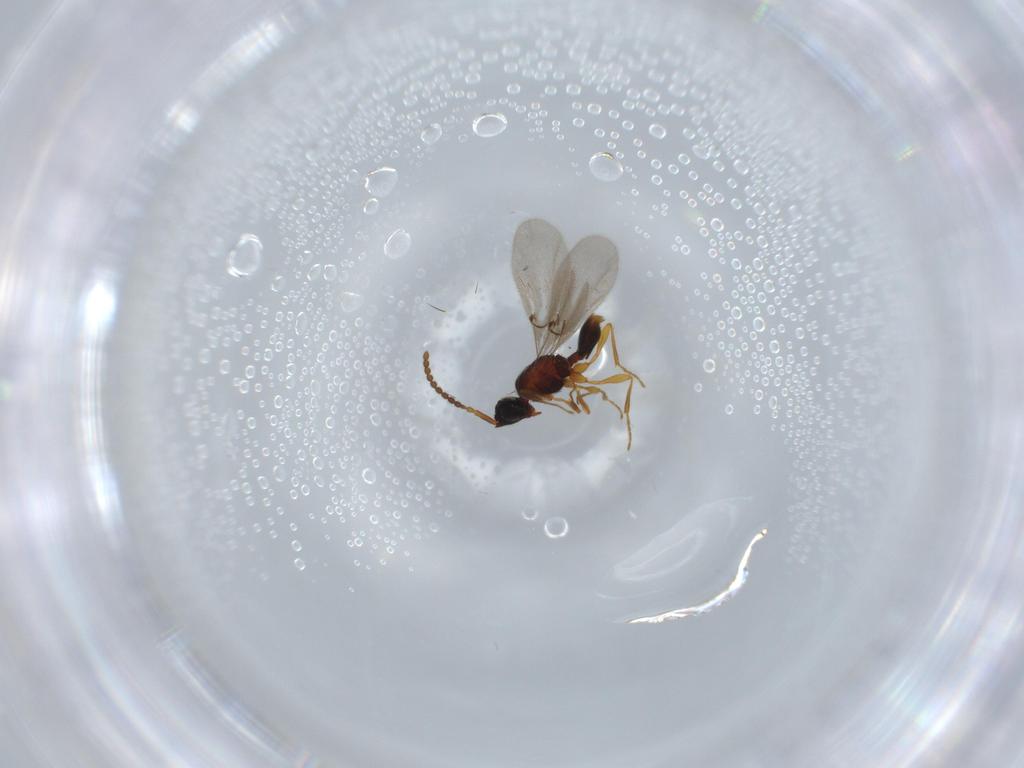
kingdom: Animalia
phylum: Arthropoda
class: Insecta
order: Hymenoptera
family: Diapriidae
